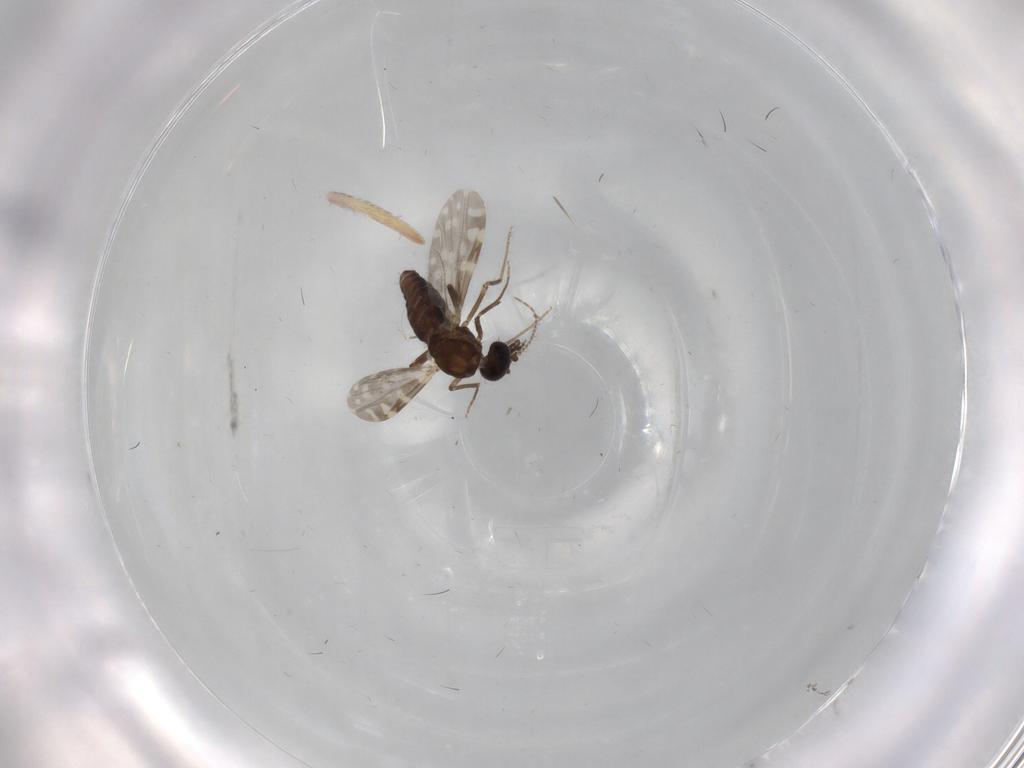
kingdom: Animalia
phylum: Arthropoda
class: Insecta
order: Diptera
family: Ceratopogonidae
